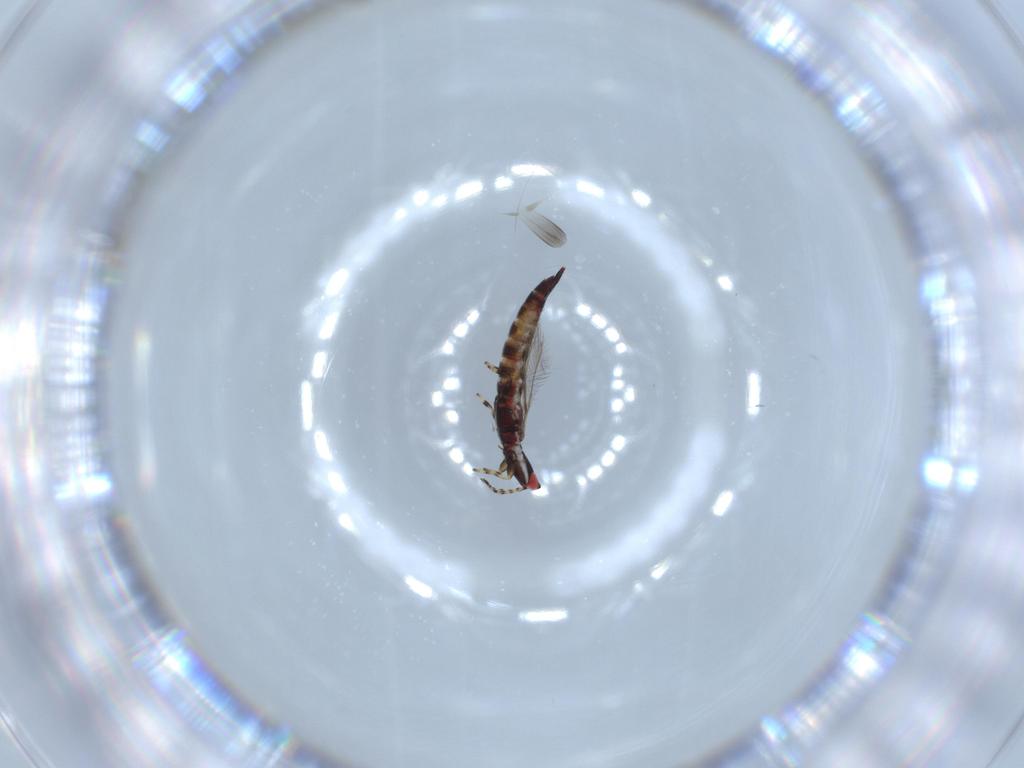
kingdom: Animalia
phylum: Arthropoda
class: Insecta
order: Thysanoptera
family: Phlaeothripidae
